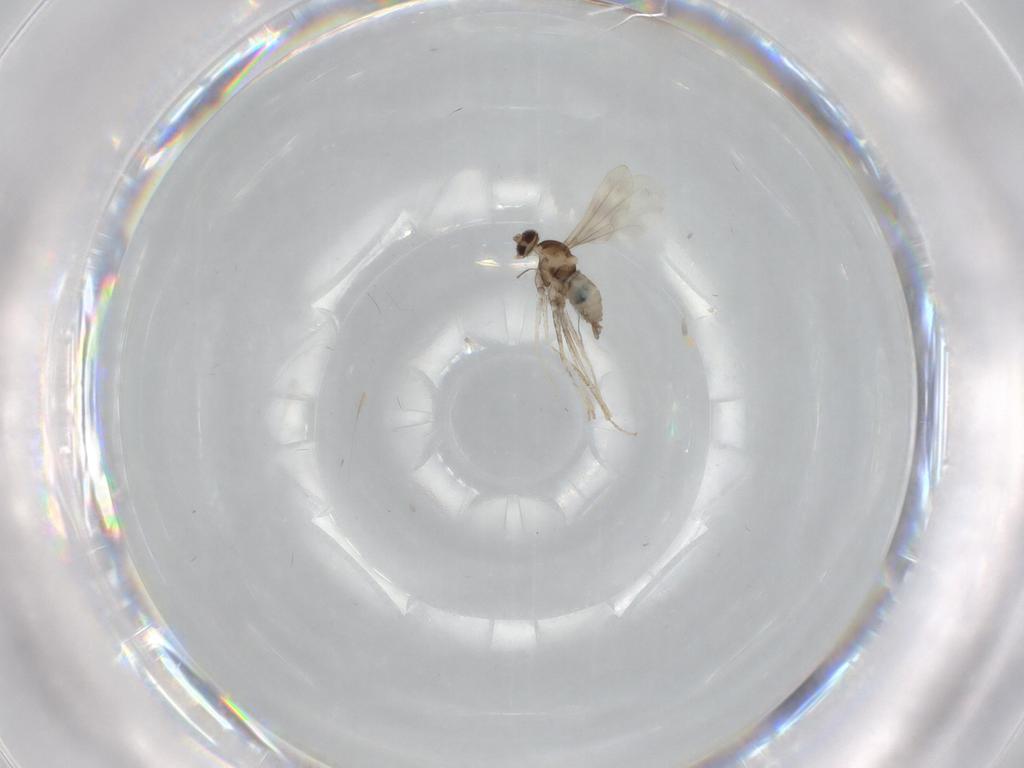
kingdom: Animalia
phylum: Arthropoda
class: Insecta
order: Diptera
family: Cecidomyiidae
